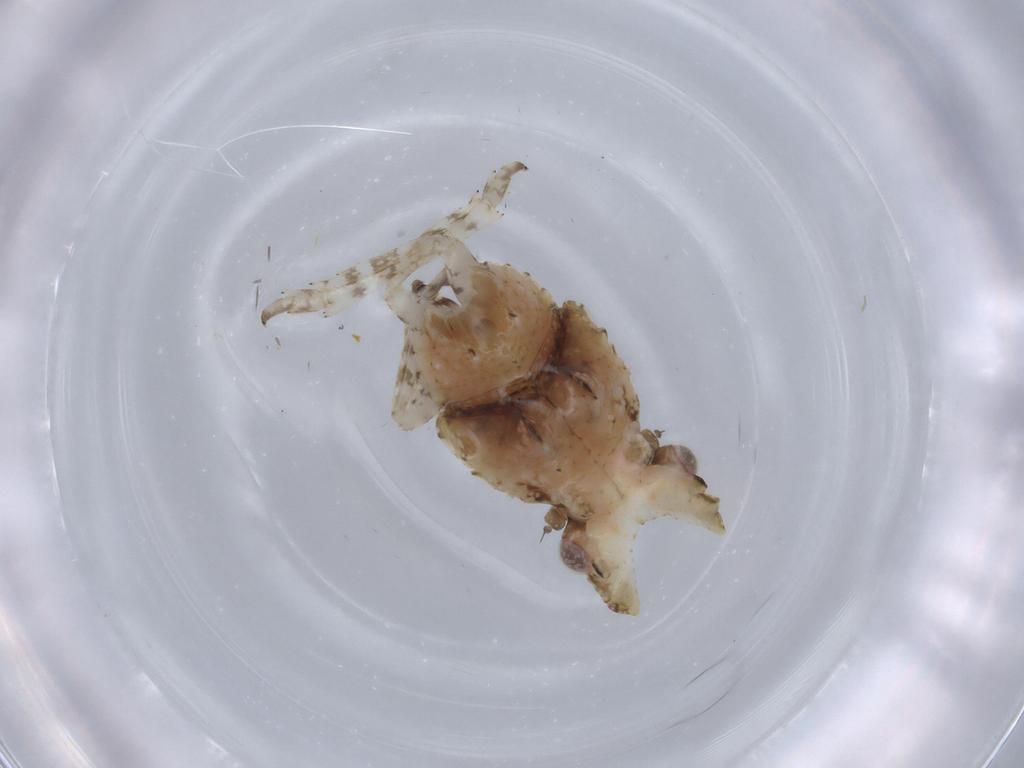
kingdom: Animalia
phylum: Arthropoda
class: Insecta
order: Hemiptera
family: Fulgoridae
